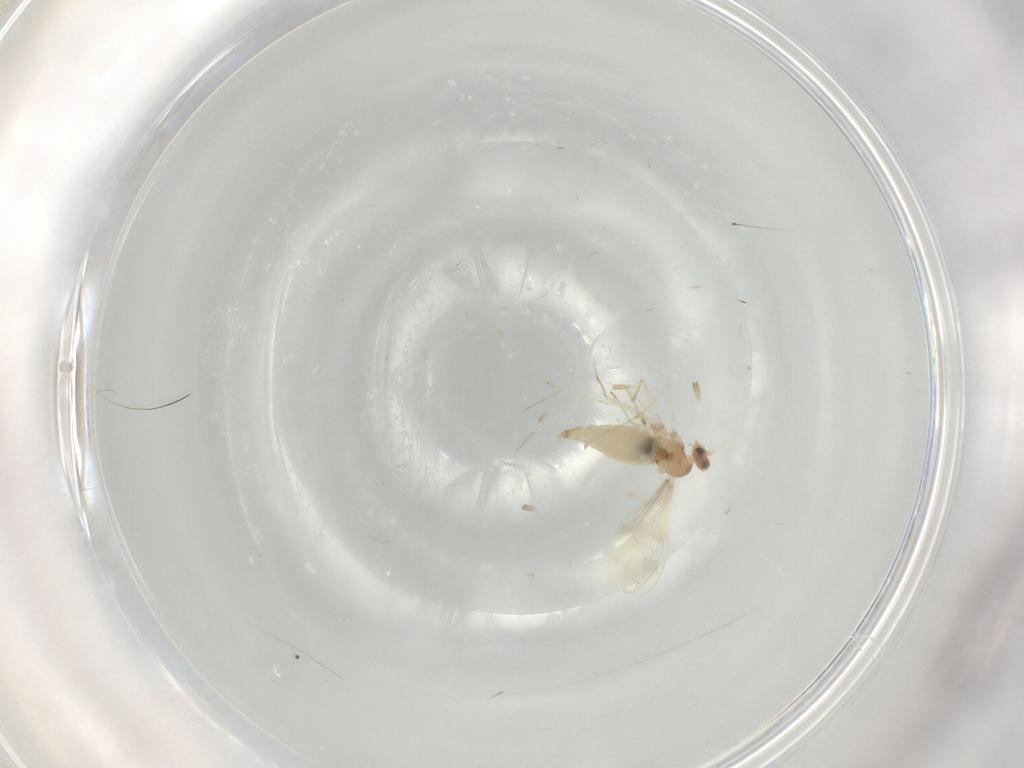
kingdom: Animalia
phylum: Arthropoda
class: Insecta
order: Diptera
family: Cecidomyiidae
